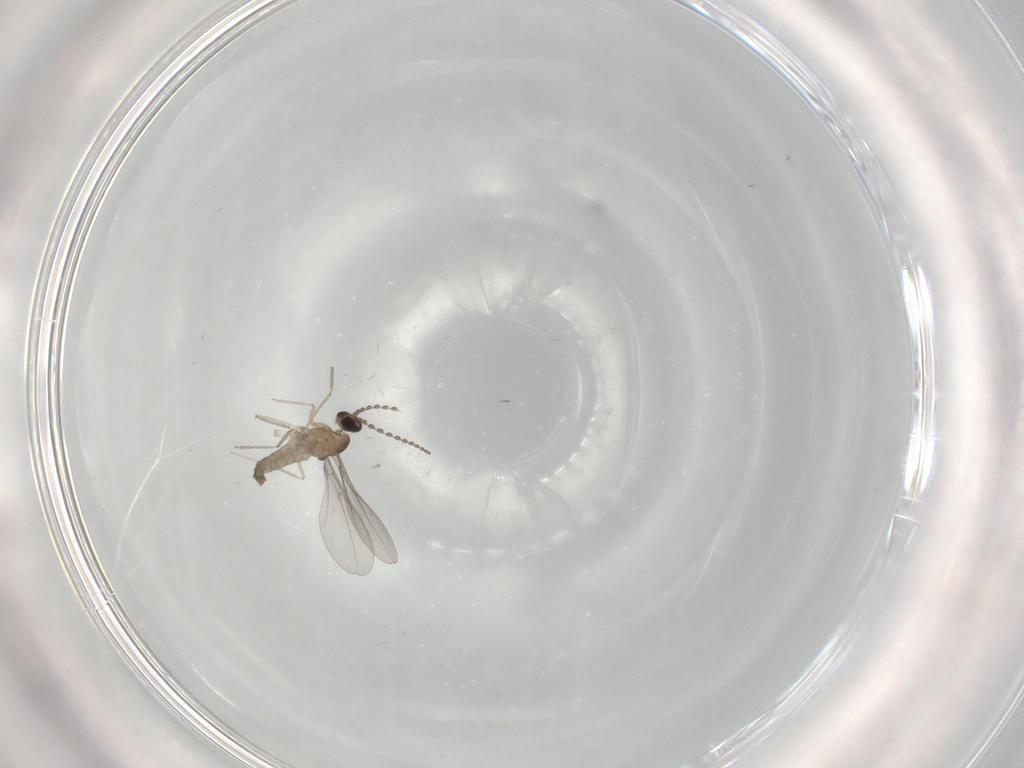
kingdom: Animalia
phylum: Arthropoda
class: Insecta
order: Diptera
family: Cecidomyiidae
